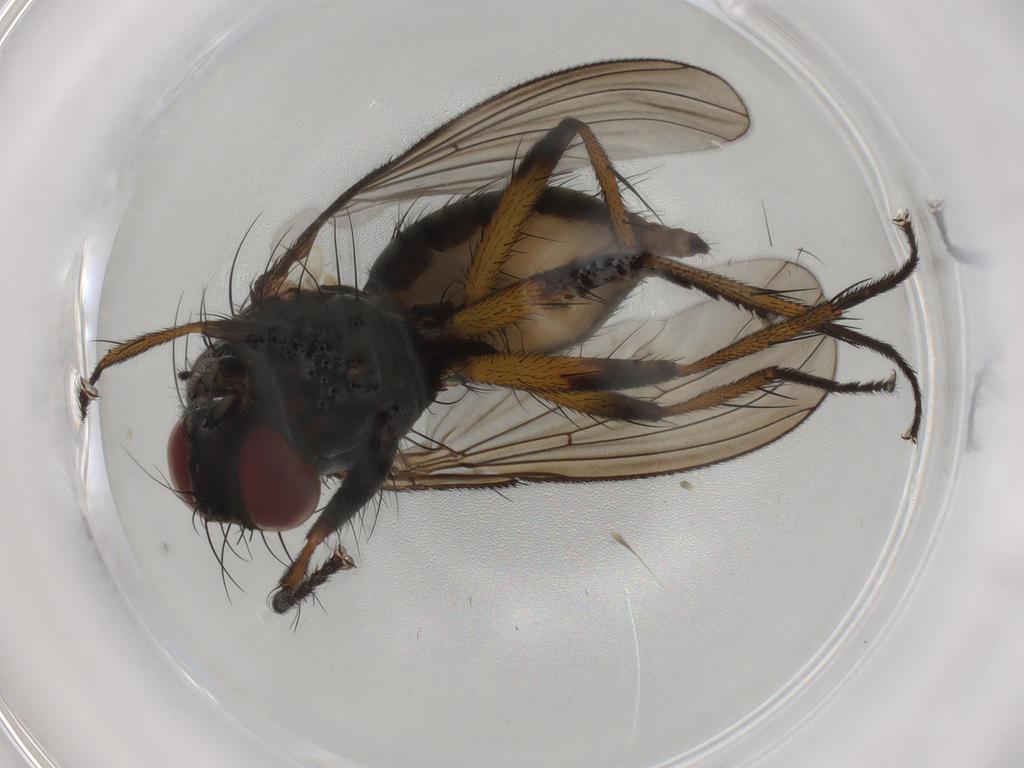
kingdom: Animalia
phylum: Arthropoda
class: Insecta
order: Diptera
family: Muscidae
